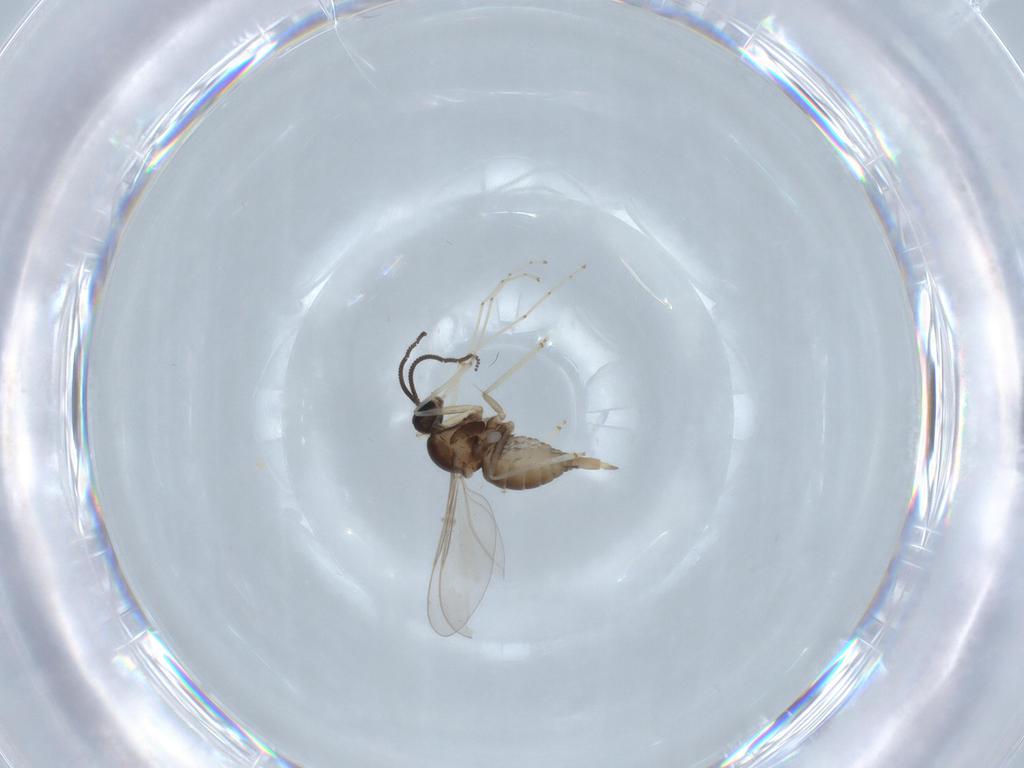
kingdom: Animalia
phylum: Arthropoda
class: Insecta
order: Diptera
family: Cecidomyiidae
